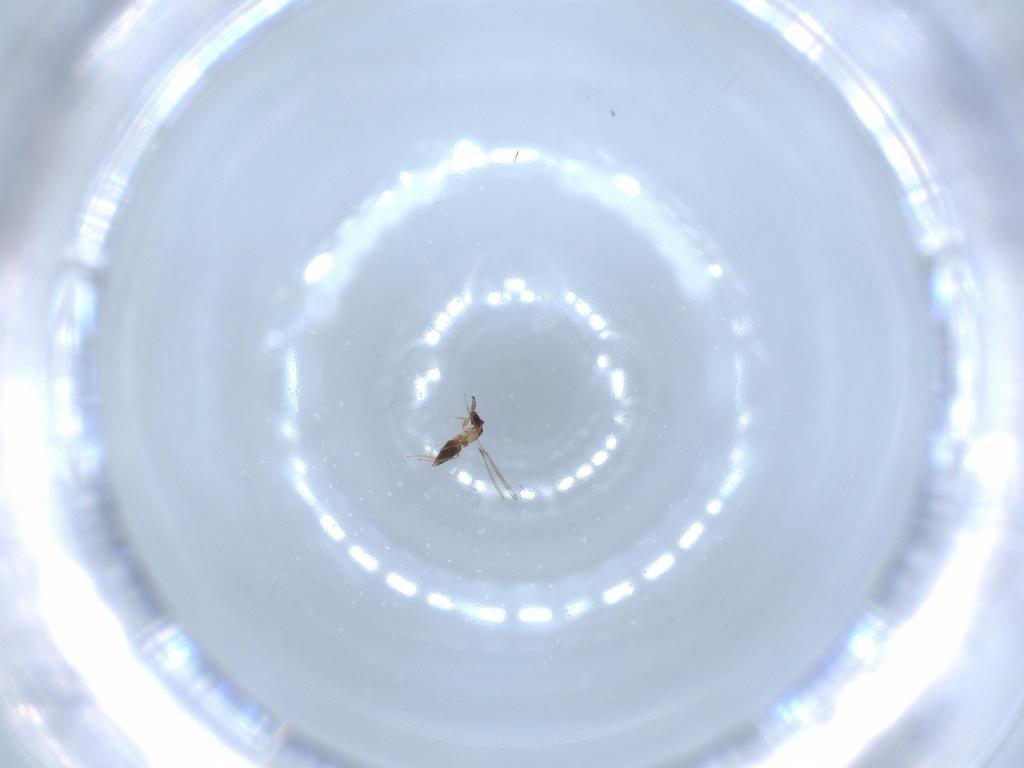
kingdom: Animalia
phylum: Arthropoda
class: Insecta
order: Hymenoptera
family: Mymaridae
